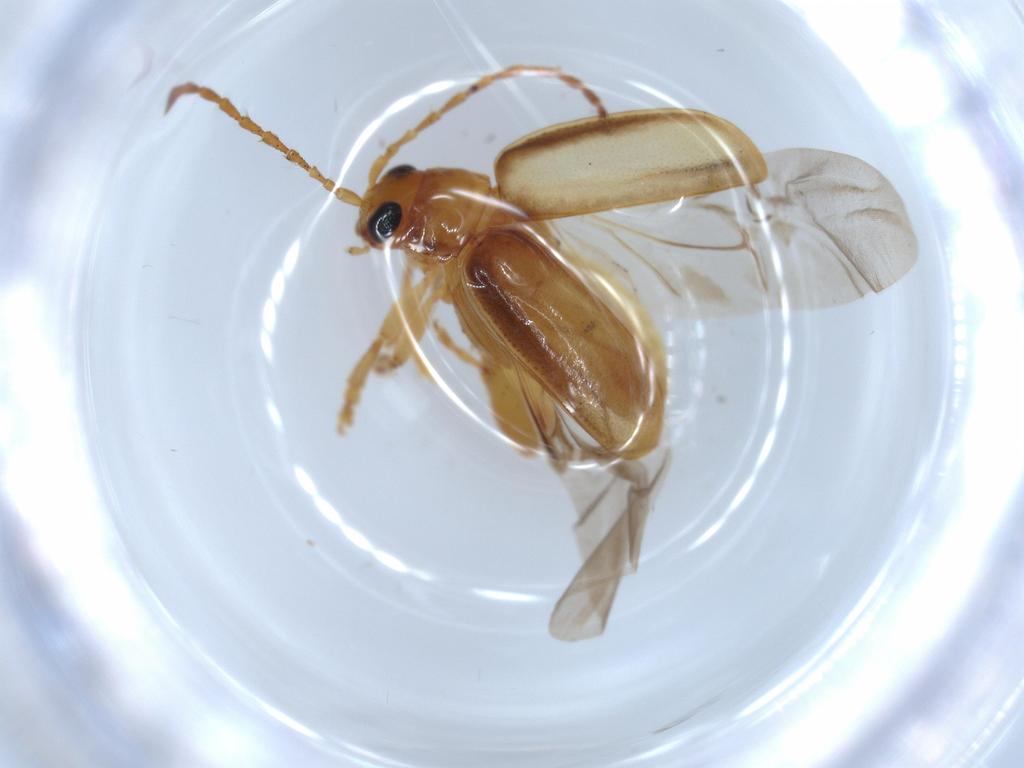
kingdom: Animalia
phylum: Arthropoda
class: Insecta
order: Coleoptera
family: Chrysomelidae
